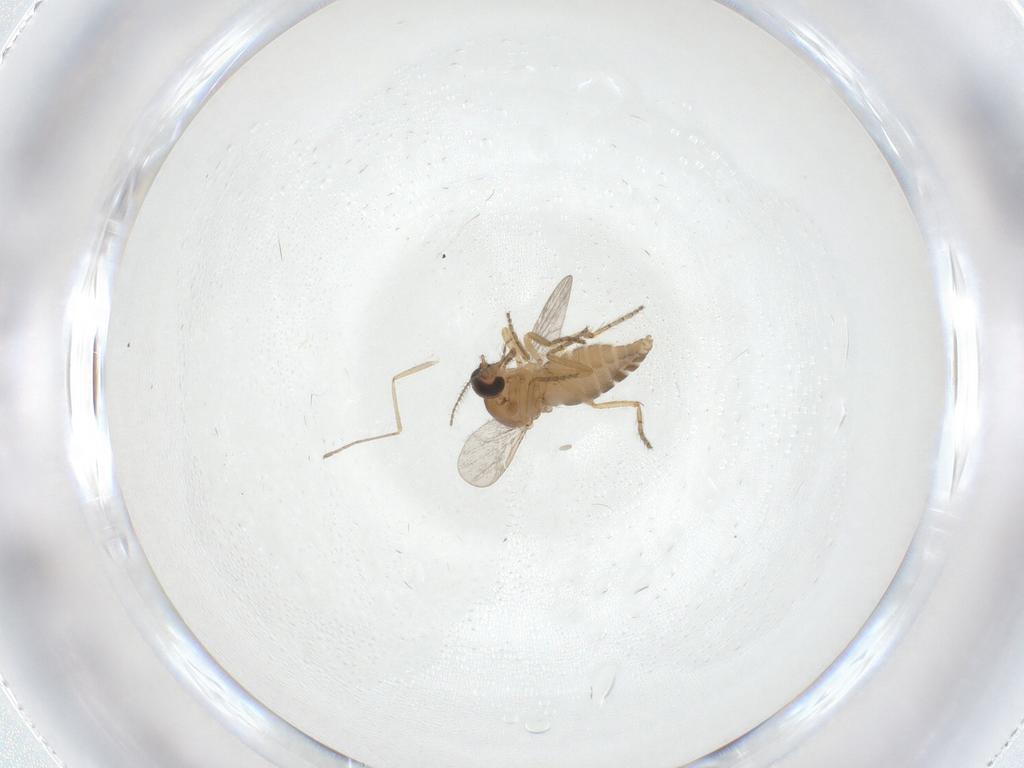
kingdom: Animalia
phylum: Arthropoda
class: Insecta
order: Diptera
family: Ceratopogonidae
